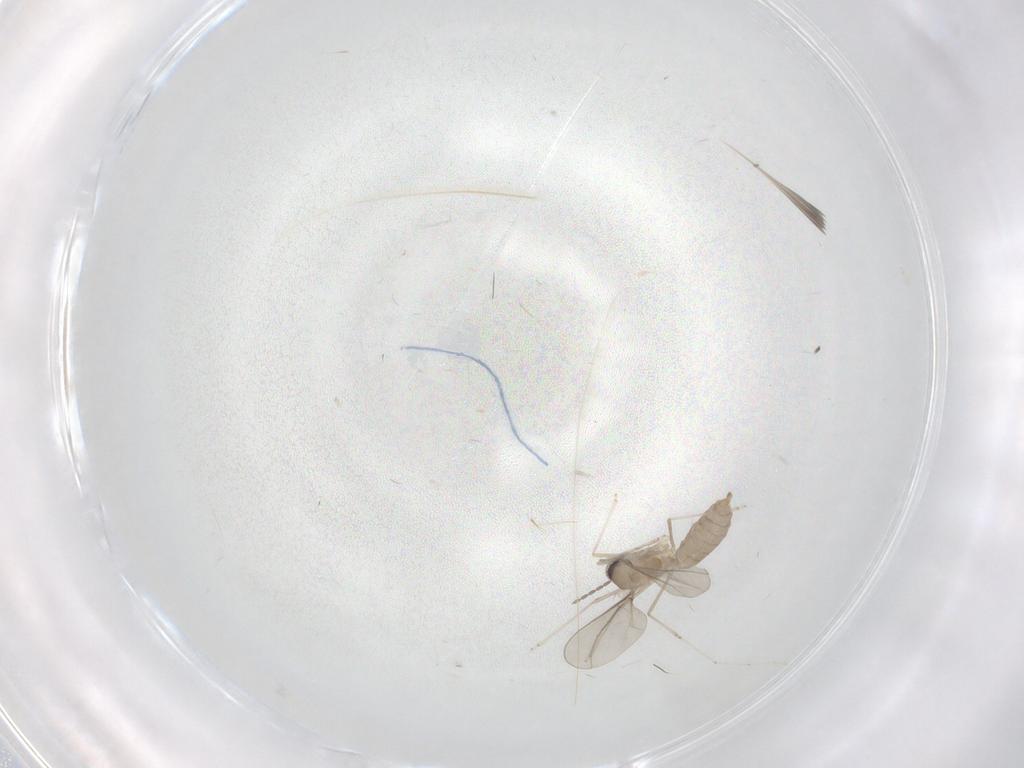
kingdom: Animalia
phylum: Arthropoda
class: Insecta
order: Diptera
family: Cecidomyiidae
